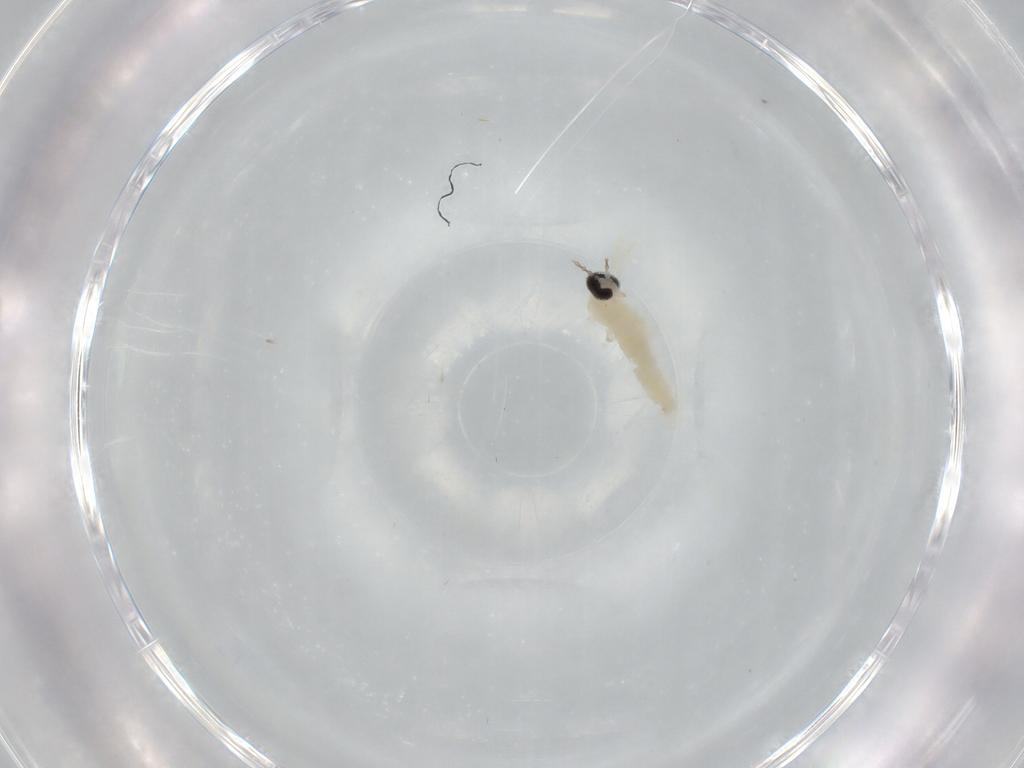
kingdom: Animalia
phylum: Arthropoda
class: Insecta
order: Diptera
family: Cecidomyiidae
